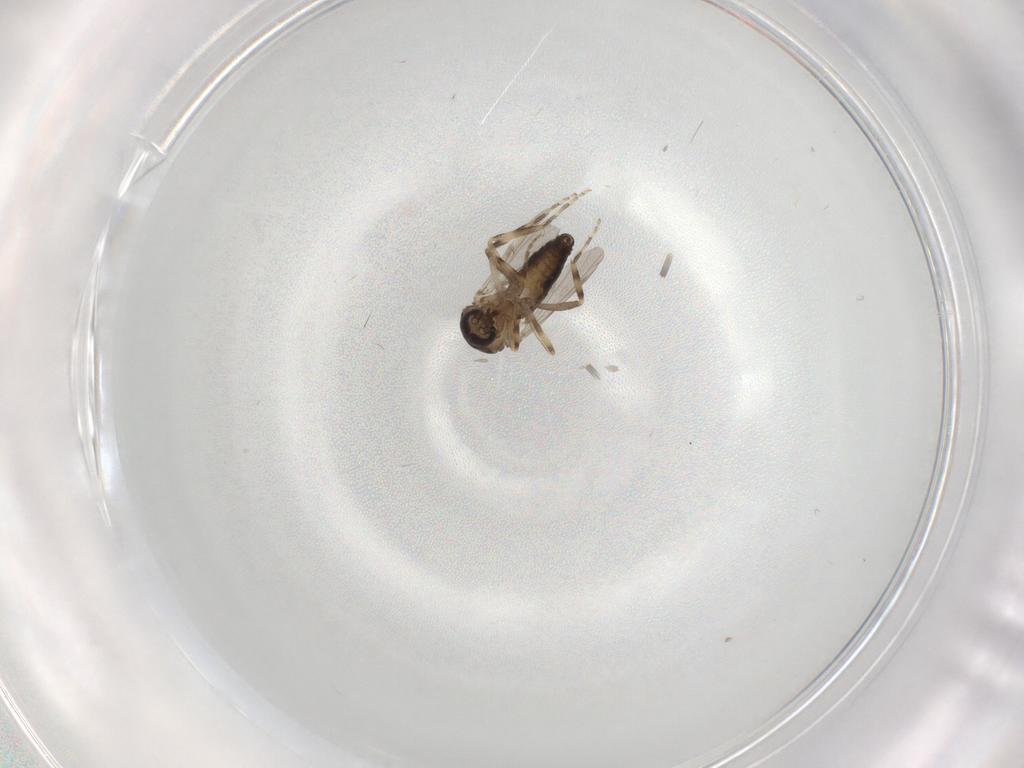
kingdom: Animalia
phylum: Arthropoda
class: Insecta
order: Diptera
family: Ceratopogonidae
